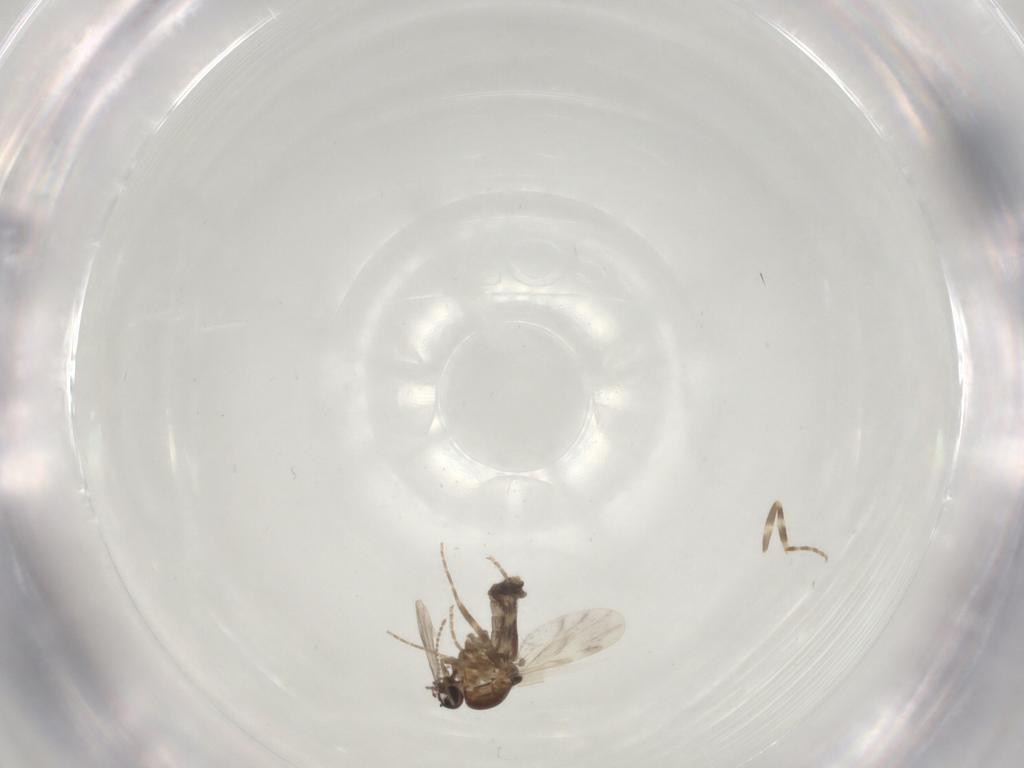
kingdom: Animalia
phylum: Arthropoda
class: Insecta
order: Diptera
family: Ceratopogonidae
